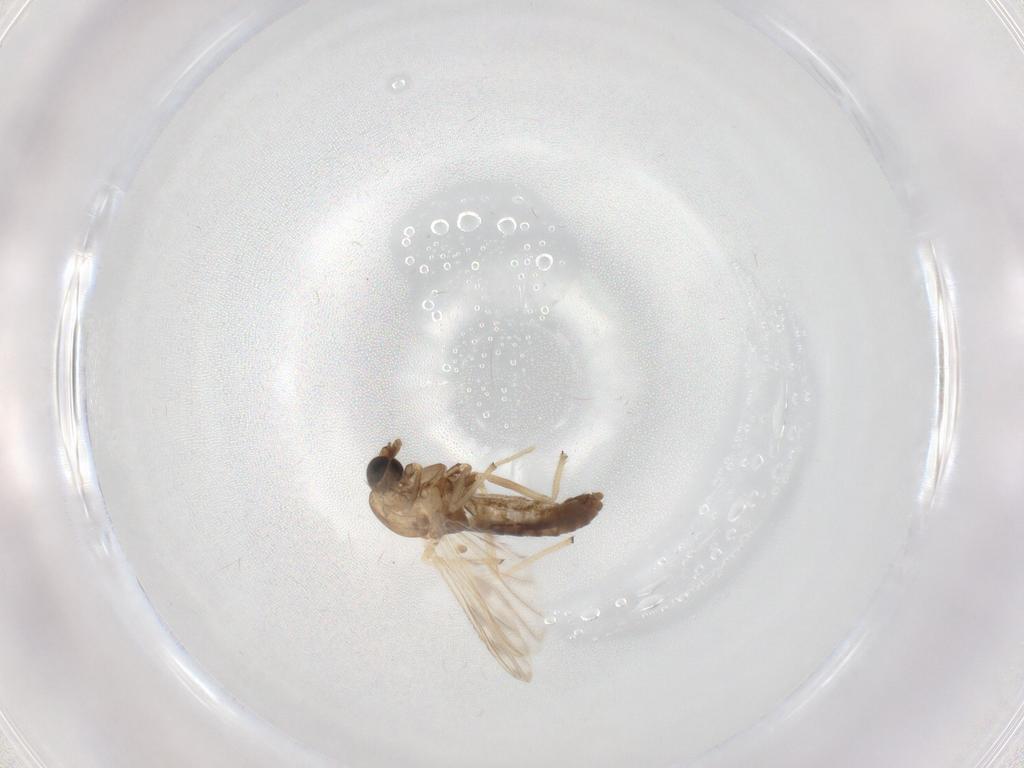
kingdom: Animalia
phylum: Arthropoda
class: Insecta
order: Diptera
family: Chironomidae
